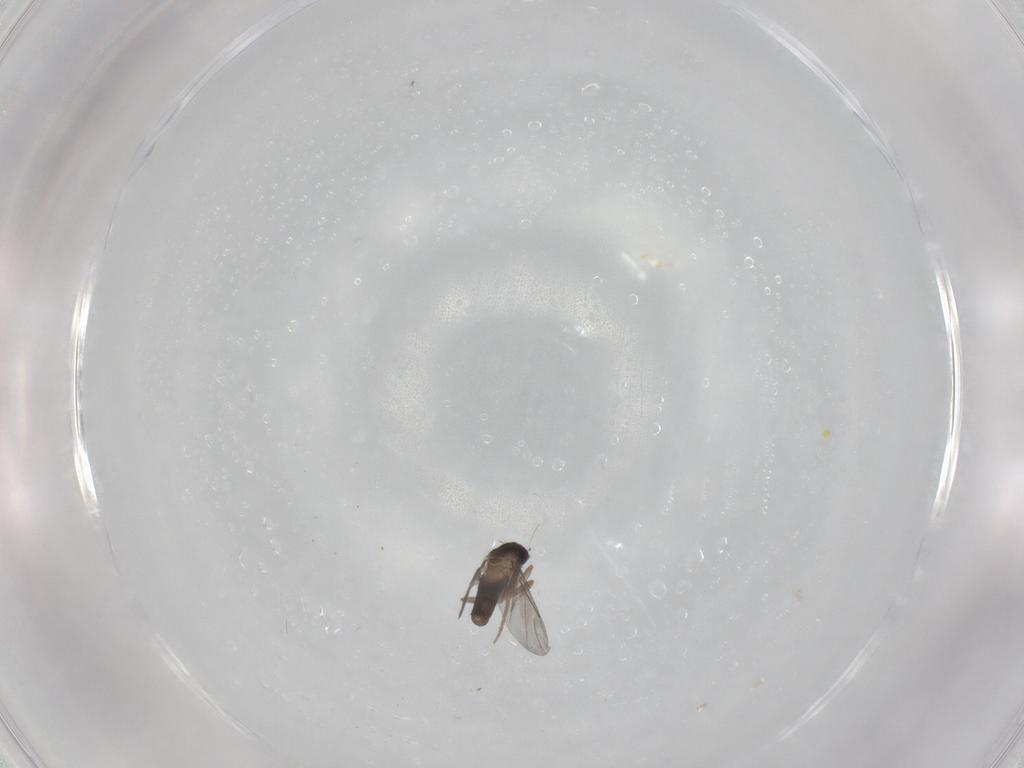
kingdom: Animalia
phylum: Arthropoda
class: Insecta
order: Diptera
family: Chironomidae
